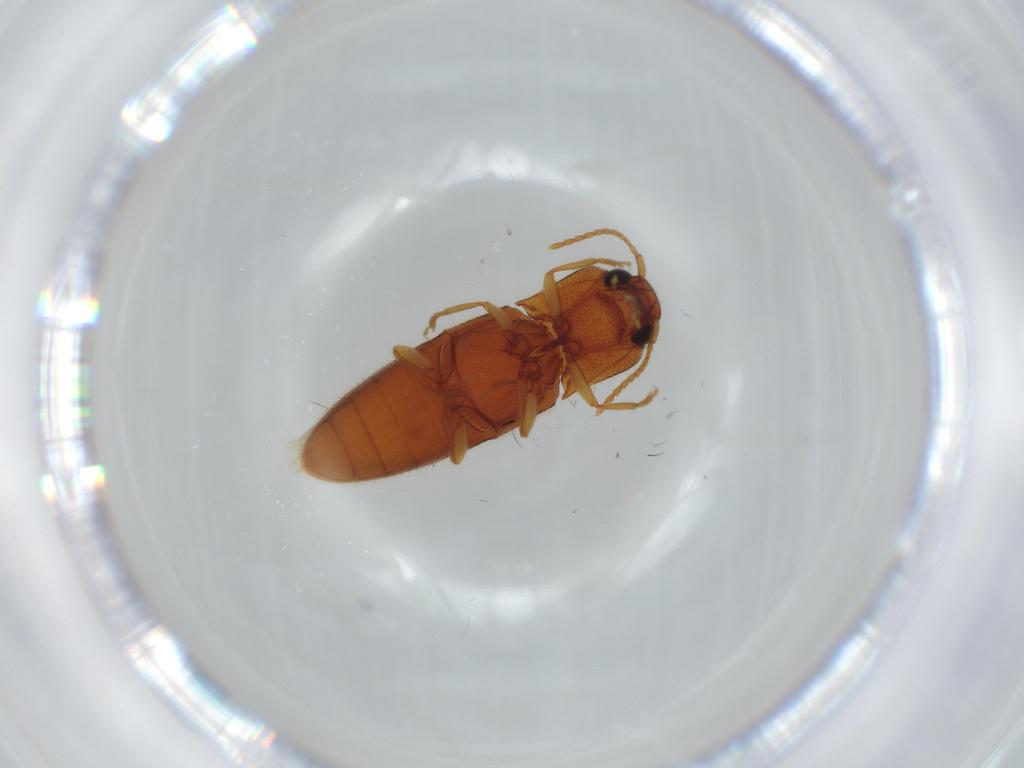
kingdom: Animalia
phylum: Arthropoda
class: Insecta
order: Coleoptera
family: Elateridae
